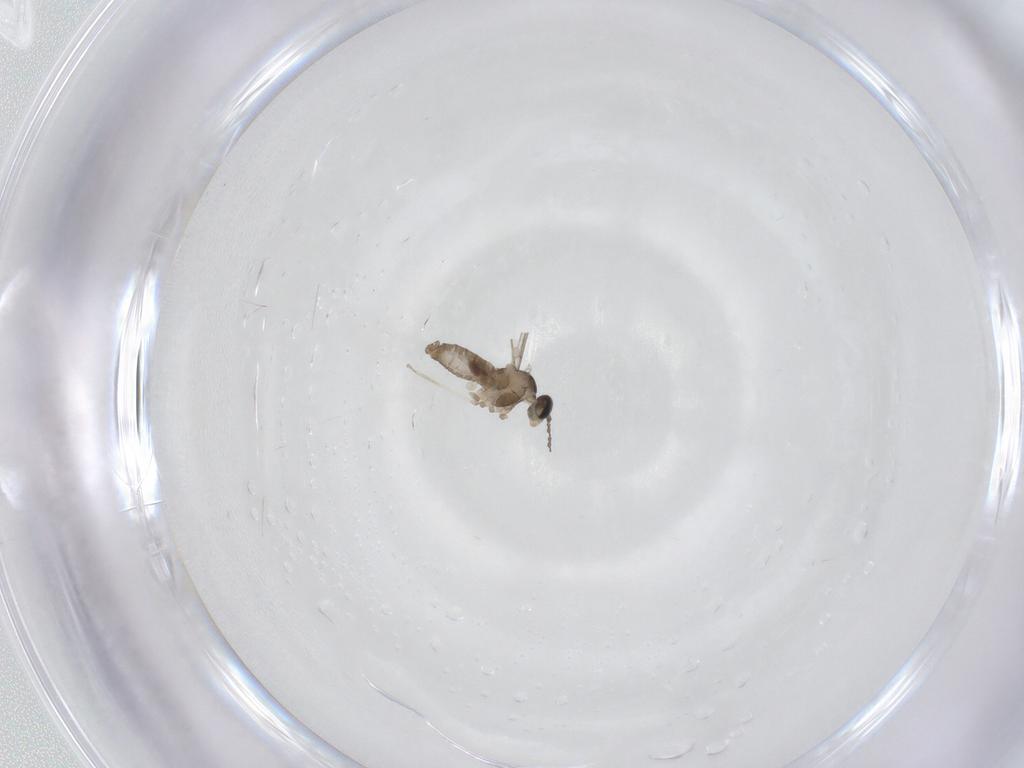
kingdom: Animalia
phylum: Arthropoda
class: Insecta
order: Diptera
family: Cecidomyiidae
